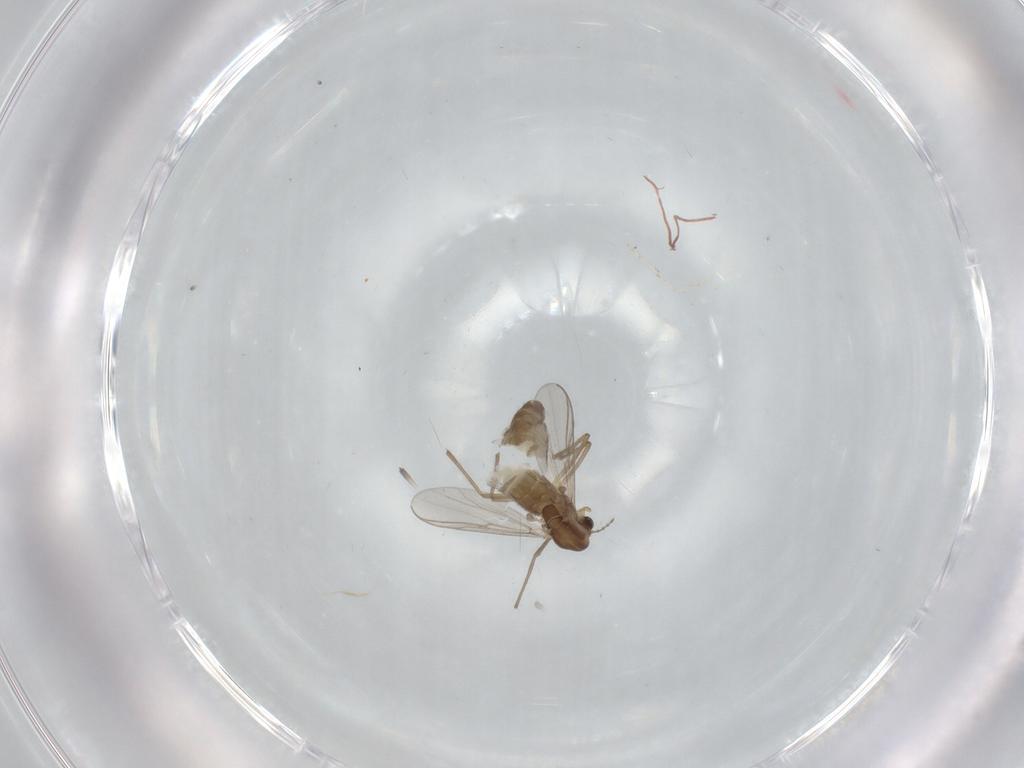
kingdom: Animalia
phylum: Arthropoda
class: Insecta
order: Diptera
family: Chironomidae
